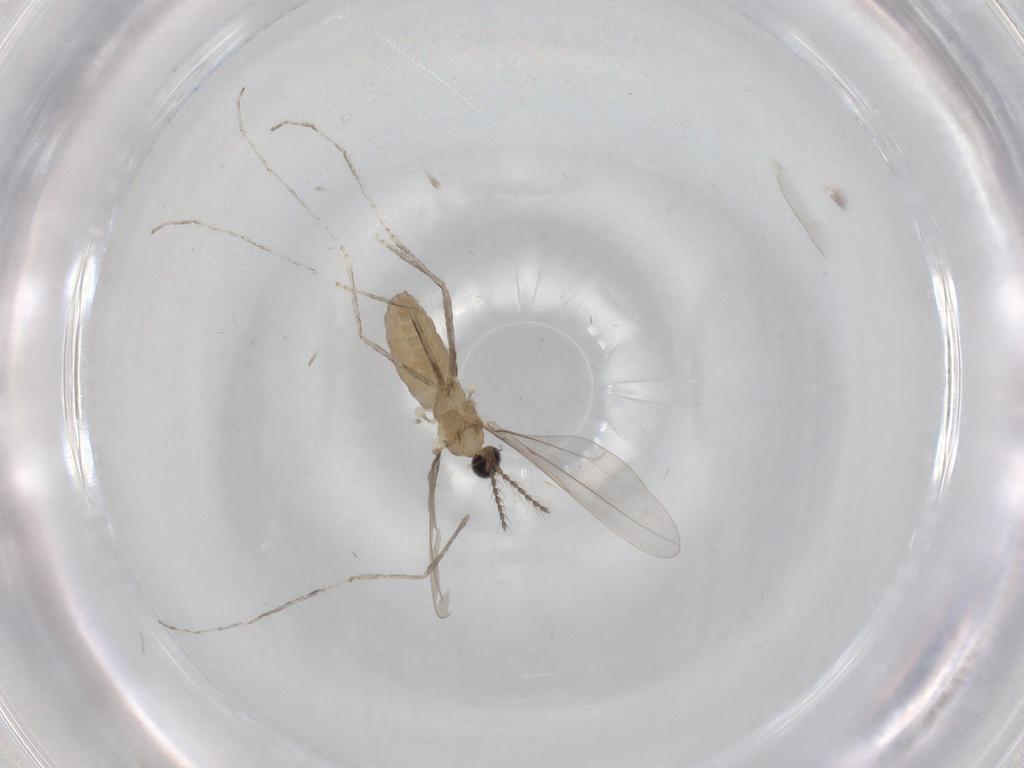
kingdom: Animalia
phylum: Arthropoda
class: Insecta
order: Diptera
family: Cecidomyiidae
